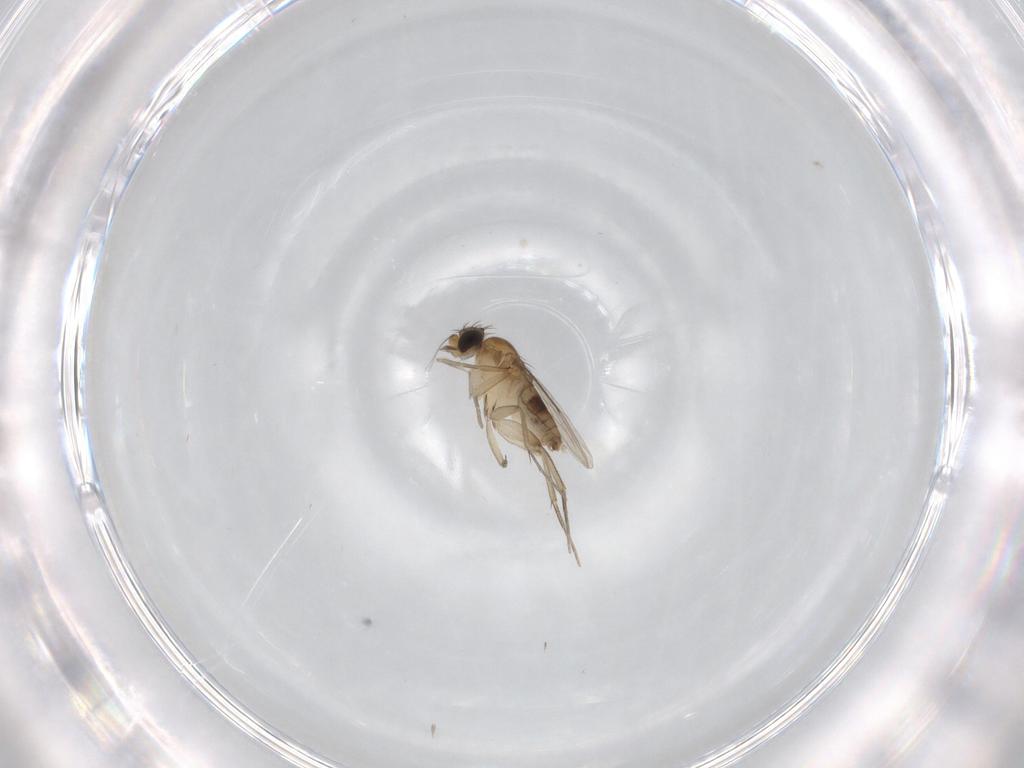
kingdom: Animalia
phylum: Arthropoda
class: Insecta
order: Diptera
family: Phoridae
